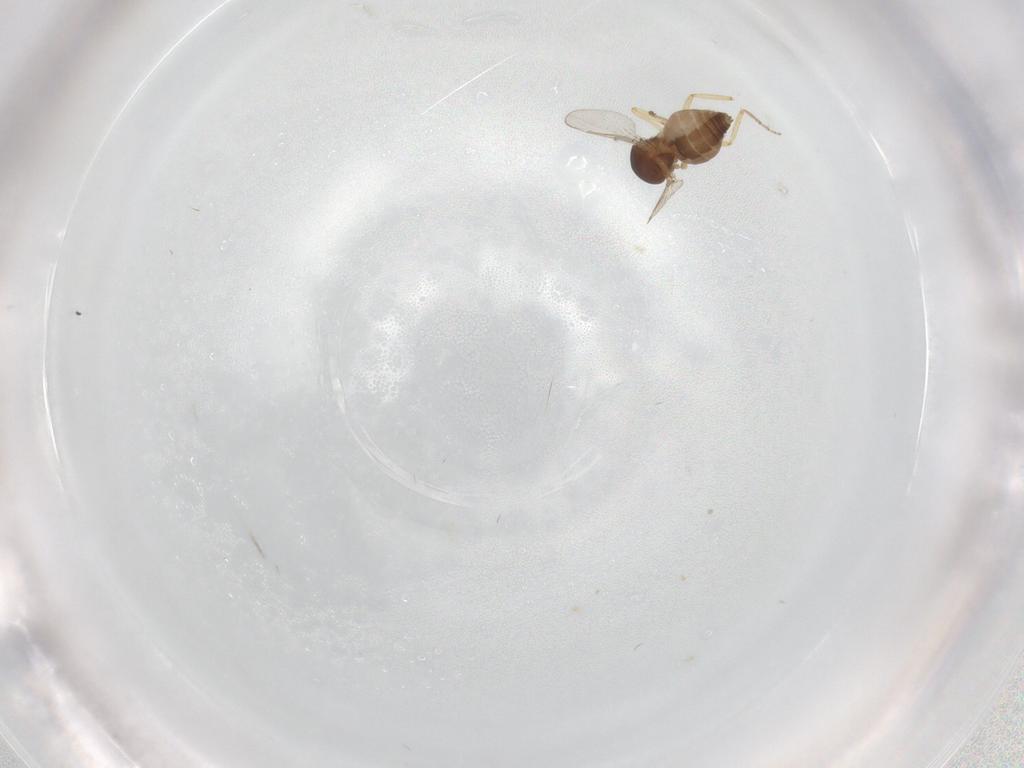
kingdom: Animalia
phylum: Arthropoda
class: Insecta
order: Diptera
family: Ceratopogonidae
